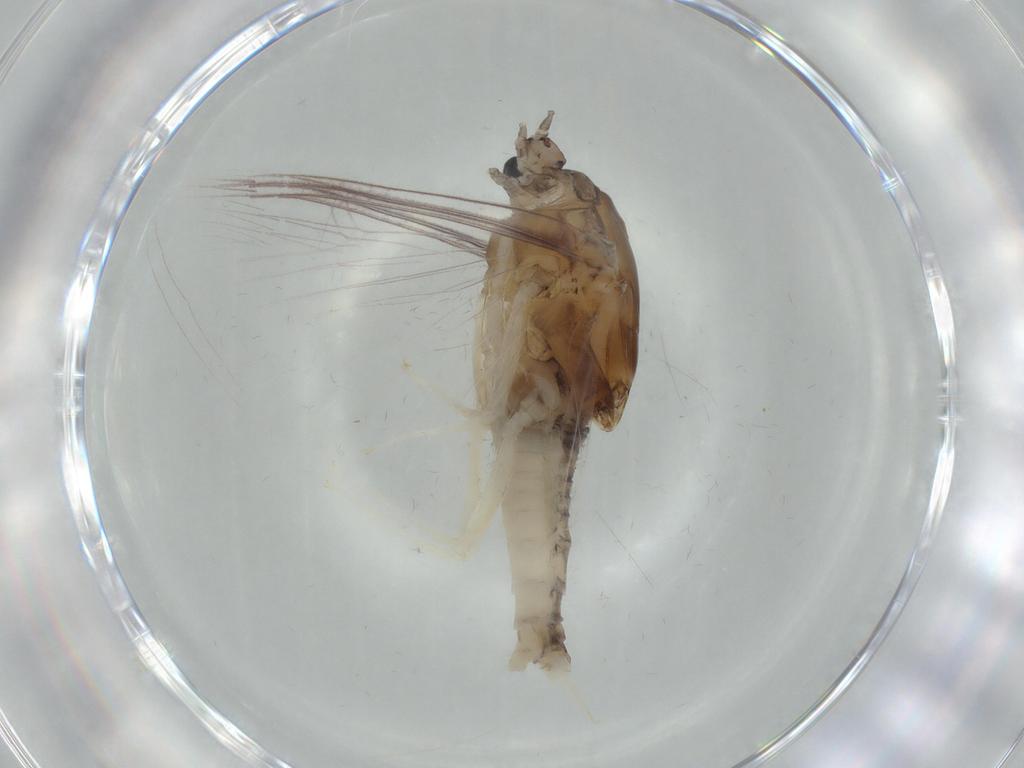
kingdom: Animalia
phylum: Arthropoda
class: Insecta
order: Ephemeroptera
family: Caenidae
